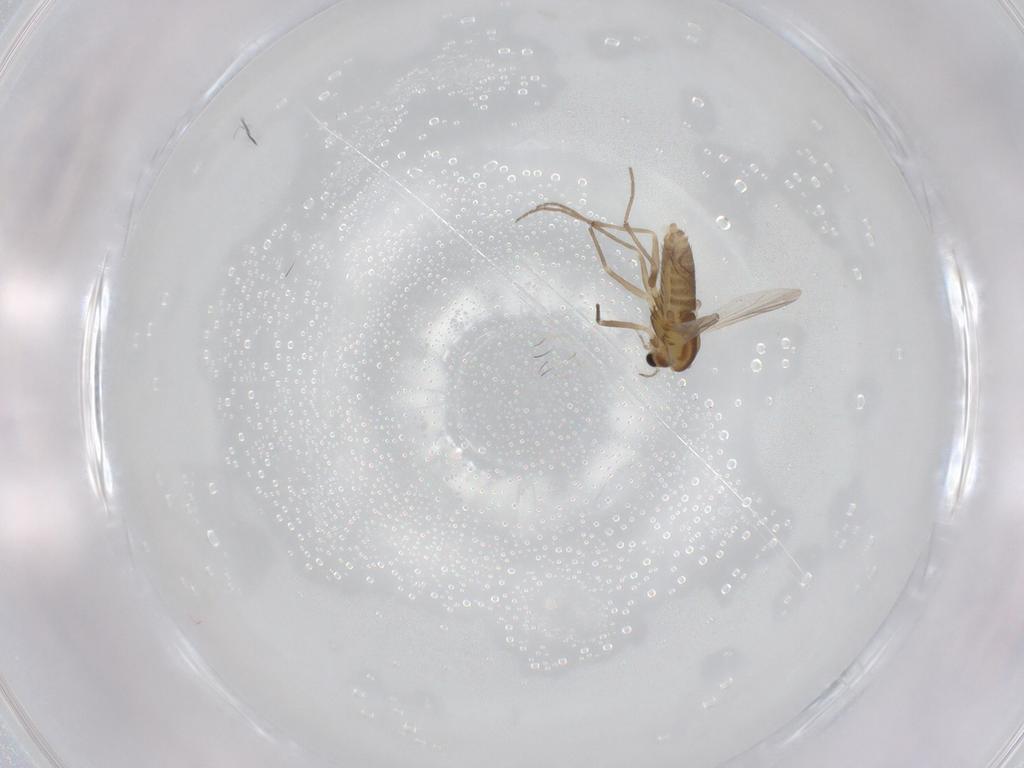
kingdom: Animalia
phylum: Arthropoda
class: Insecta
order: Diptera
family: Chironomidae
